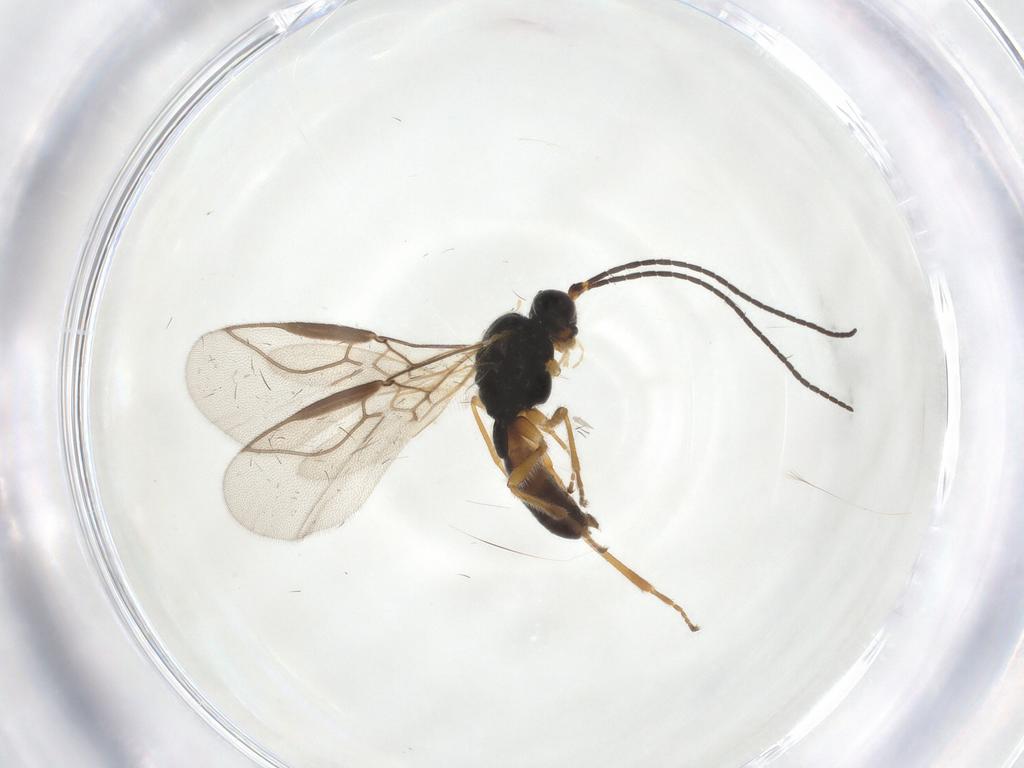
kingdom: Animalia
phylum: Arthropoda
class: Insecta
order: Hymenoptera
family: Braconidae
